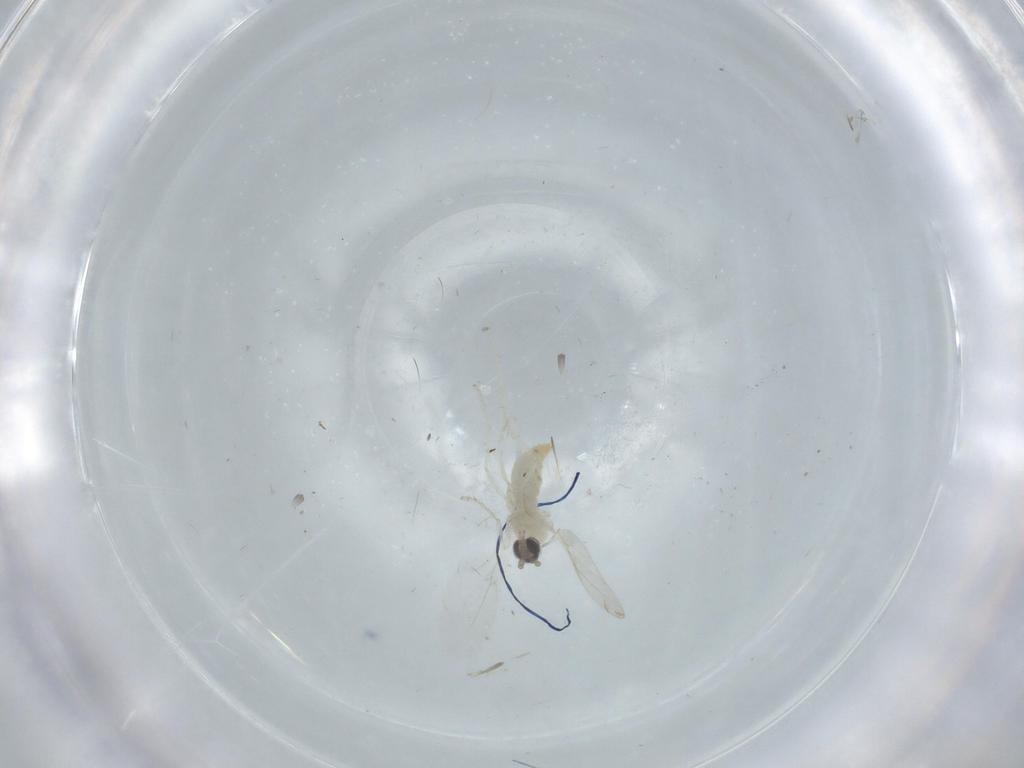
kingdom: Animalia
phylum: Arthropoda
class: Insecta
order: Diptera
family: Cecidomyiidae
